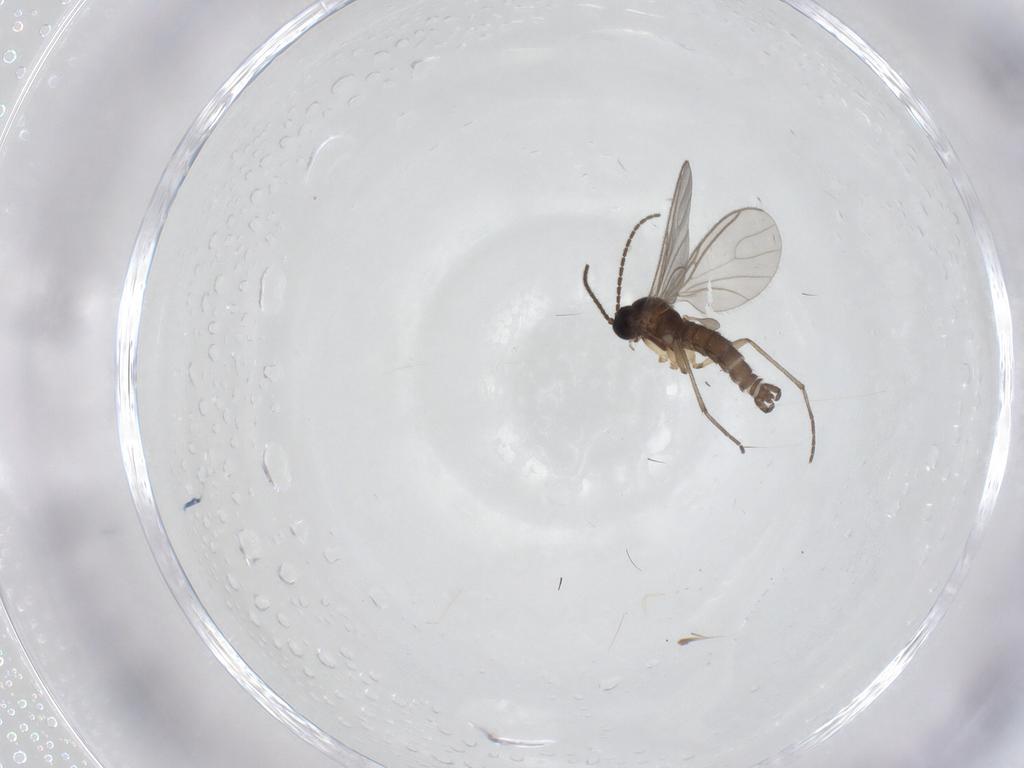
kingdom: Animalia
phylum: Arthropoda
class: Insecta
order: Diptera
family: Sciaridae
